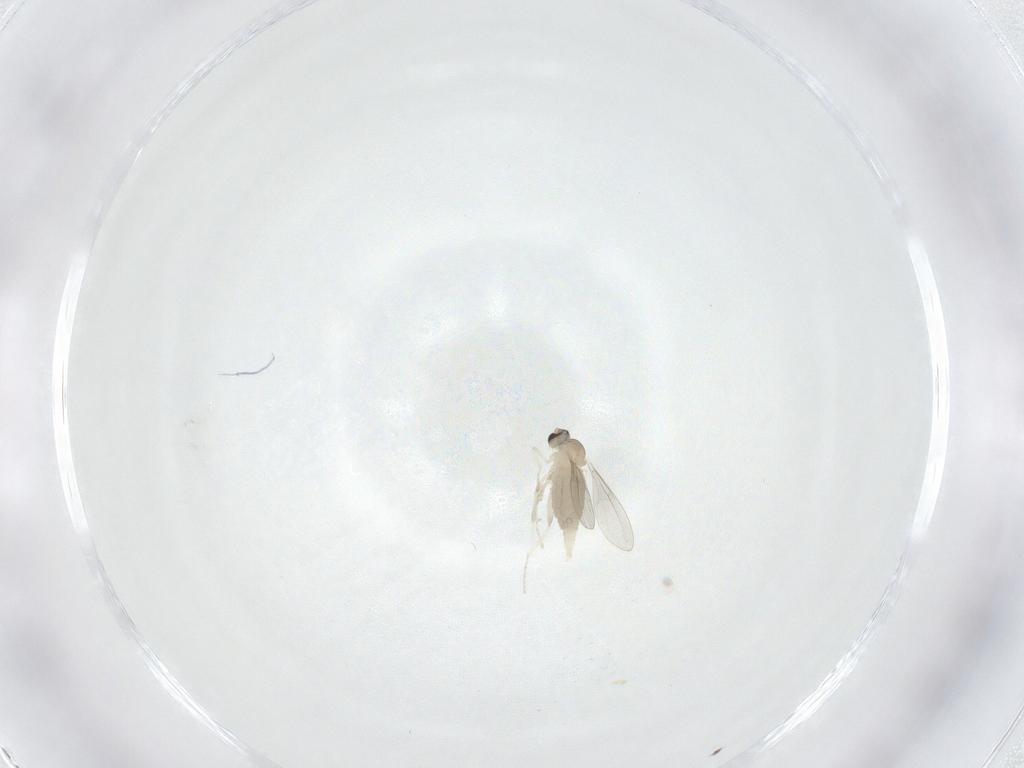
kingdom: Animalia
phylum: Arthropoda
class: Insecta
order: Diptera
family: Cecidomyiidae
